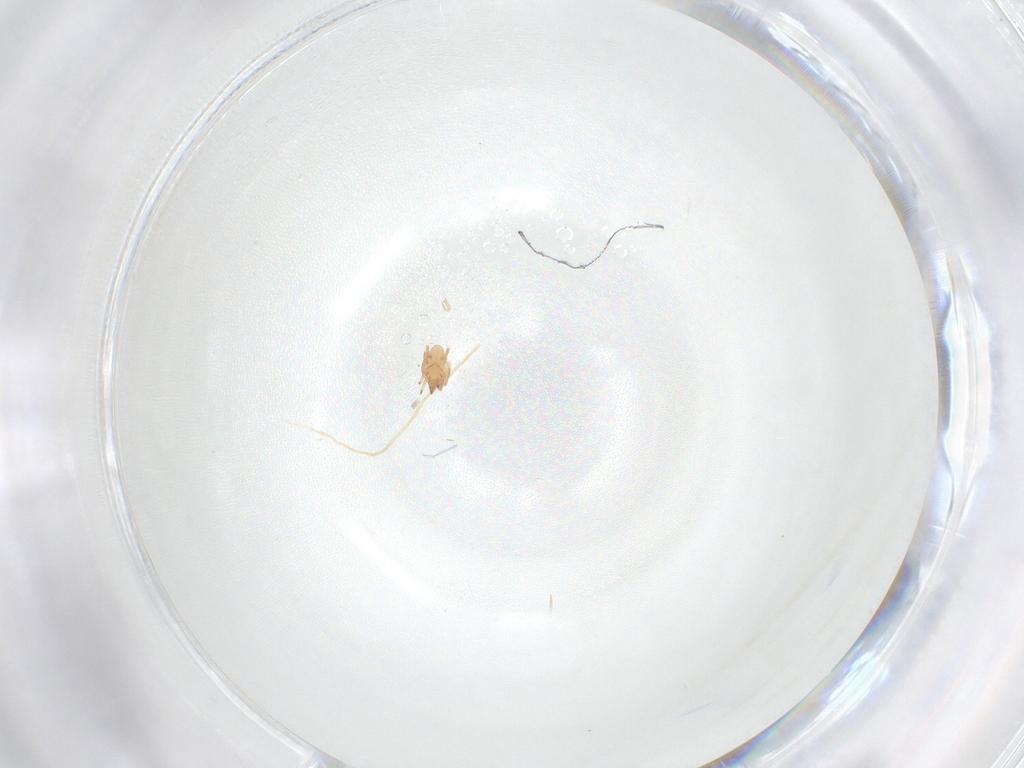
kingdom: Animalia
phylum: Arthropoda
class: Arachnida
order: Trombidiformes
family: Cunaxidae
